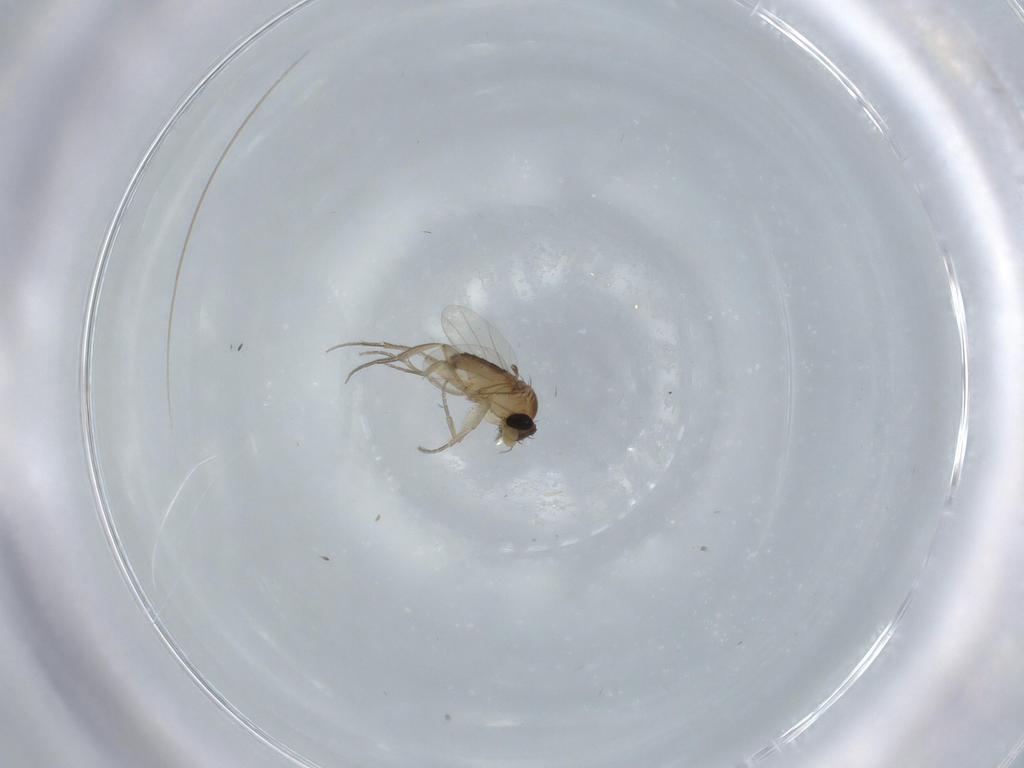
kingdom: Animalia
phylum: Arthropoda
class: Insecta
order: Diptera
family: Phoridae
